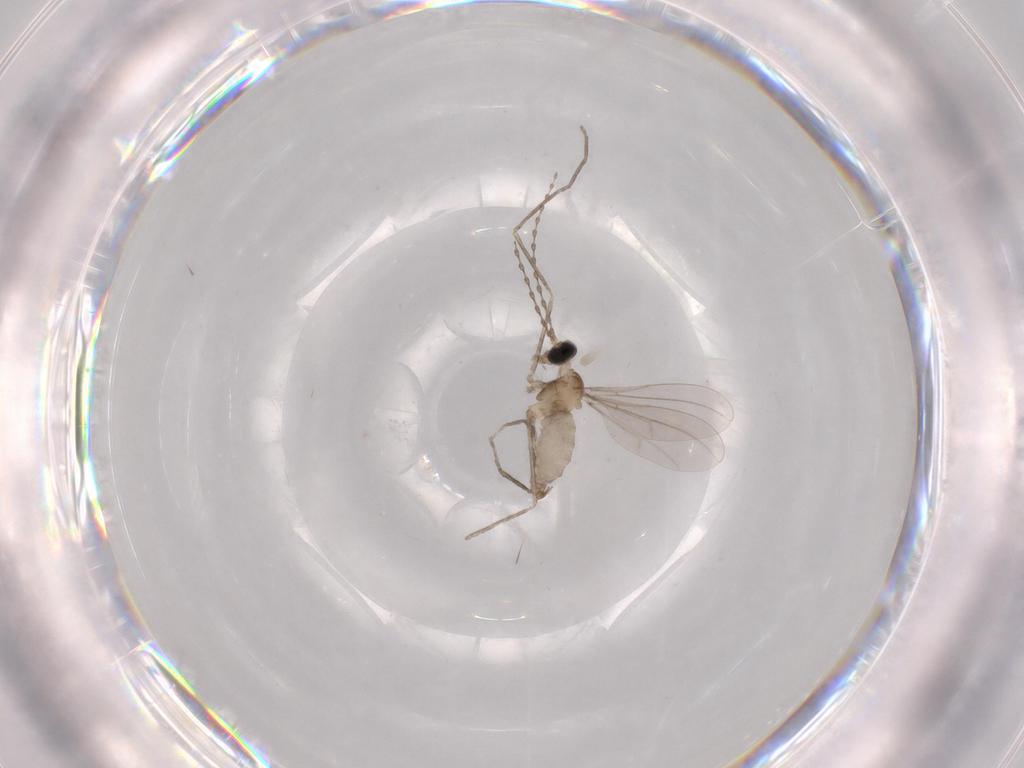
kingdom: Animalia
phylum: Arthropoda
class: Insecta
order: Diptera
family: Cecidomyiidae
